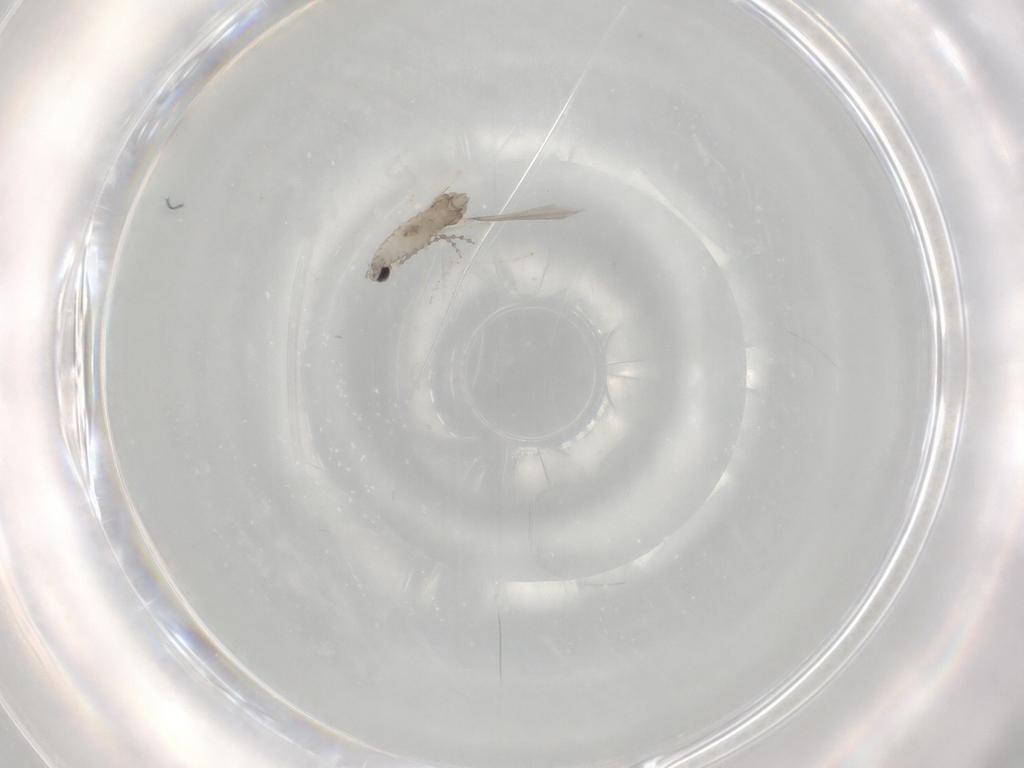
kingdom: Animalia
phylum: Arthropoda
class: Insecta
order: Diptera
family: Cecidomyiidae
